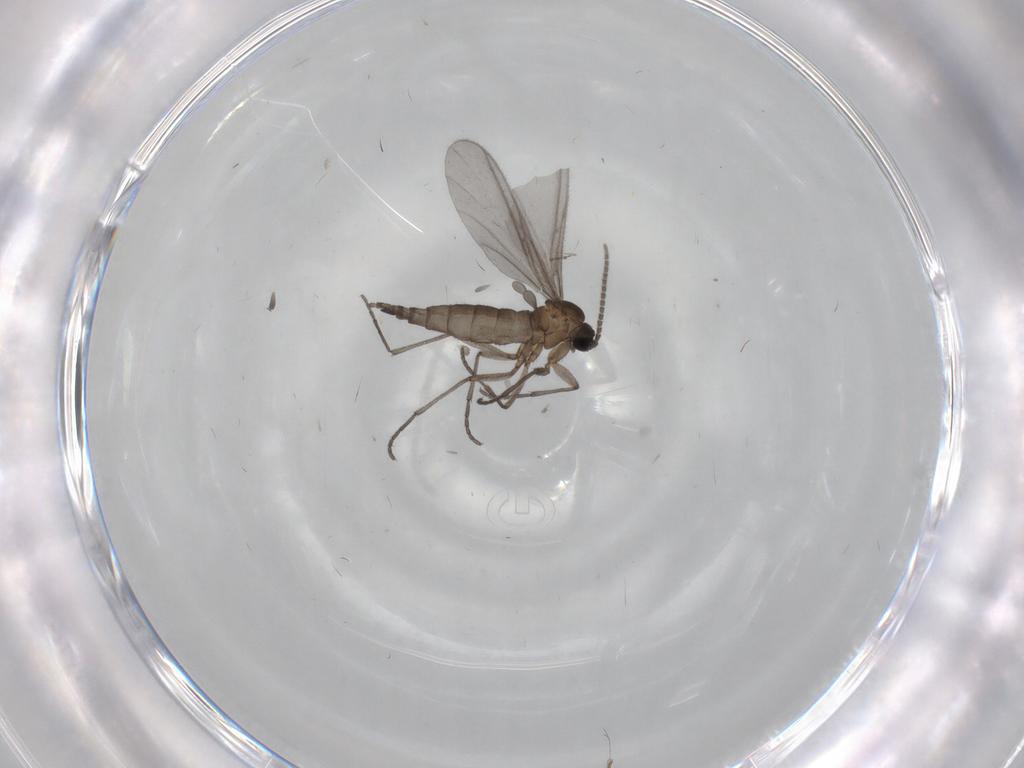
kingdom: Animalia
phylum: Arthropoda
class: Insecta
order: Diptera
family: Sciaridae
